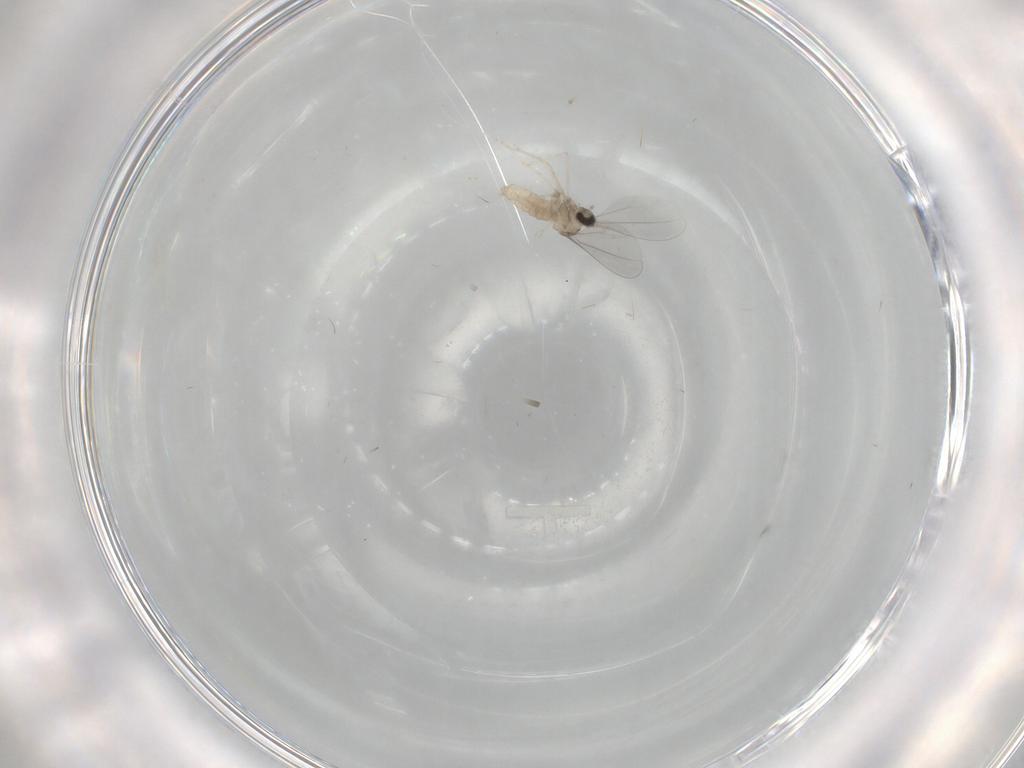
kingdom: Animalia
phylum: Arthropoda
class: Insecta
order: Diptera
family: Cecidomyiidae
